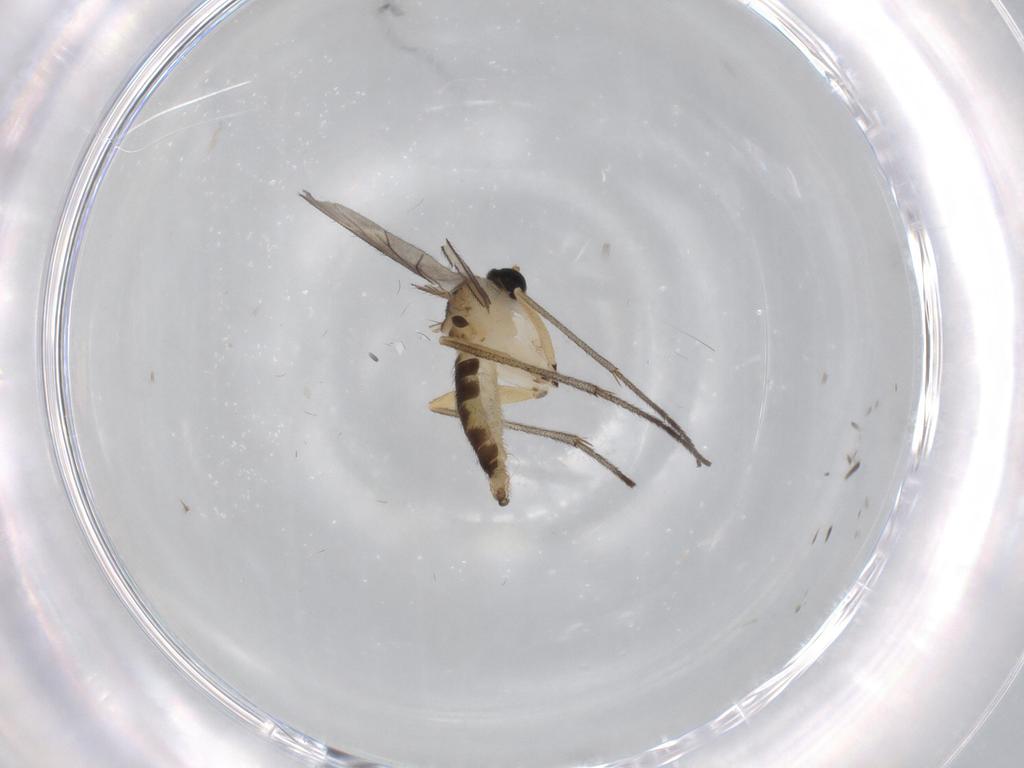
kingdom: Animalia
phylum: Arthropoda
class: Insecta
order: Diptera
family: Sciaridae
